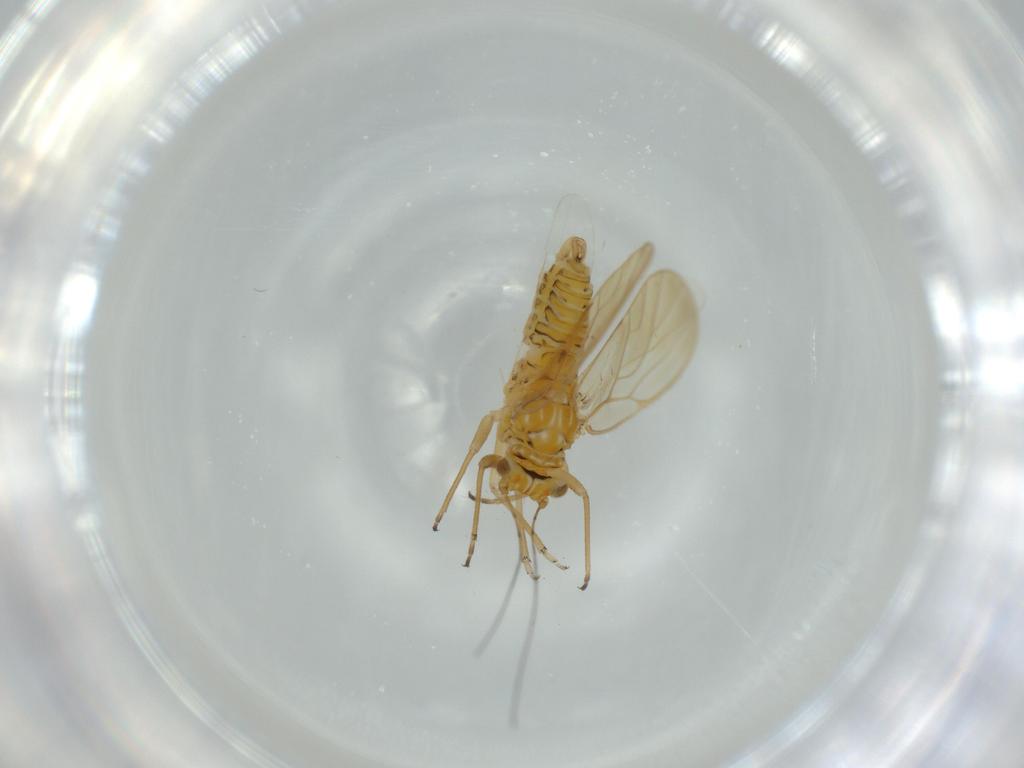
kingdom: Animalia
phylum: Arthropoda
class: Insecta
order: Hemiptera
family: Psyllidae
